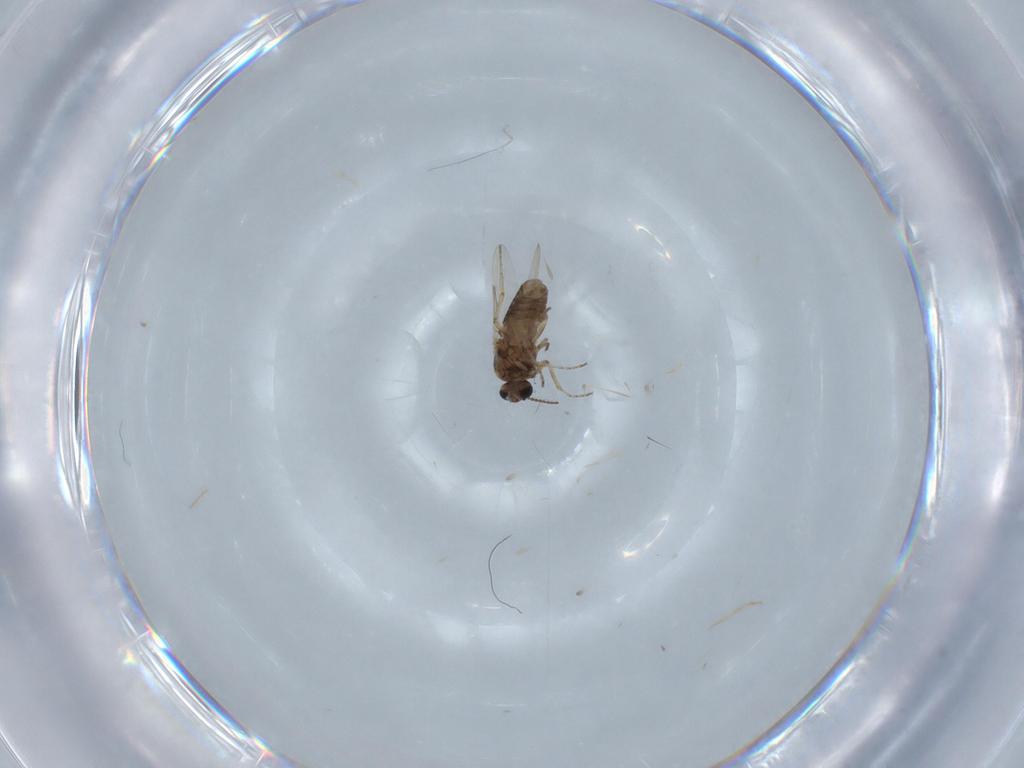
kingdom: Animalia
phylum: Arthropoda
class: Insecta
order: Diptera
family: Ceratopogonidae
